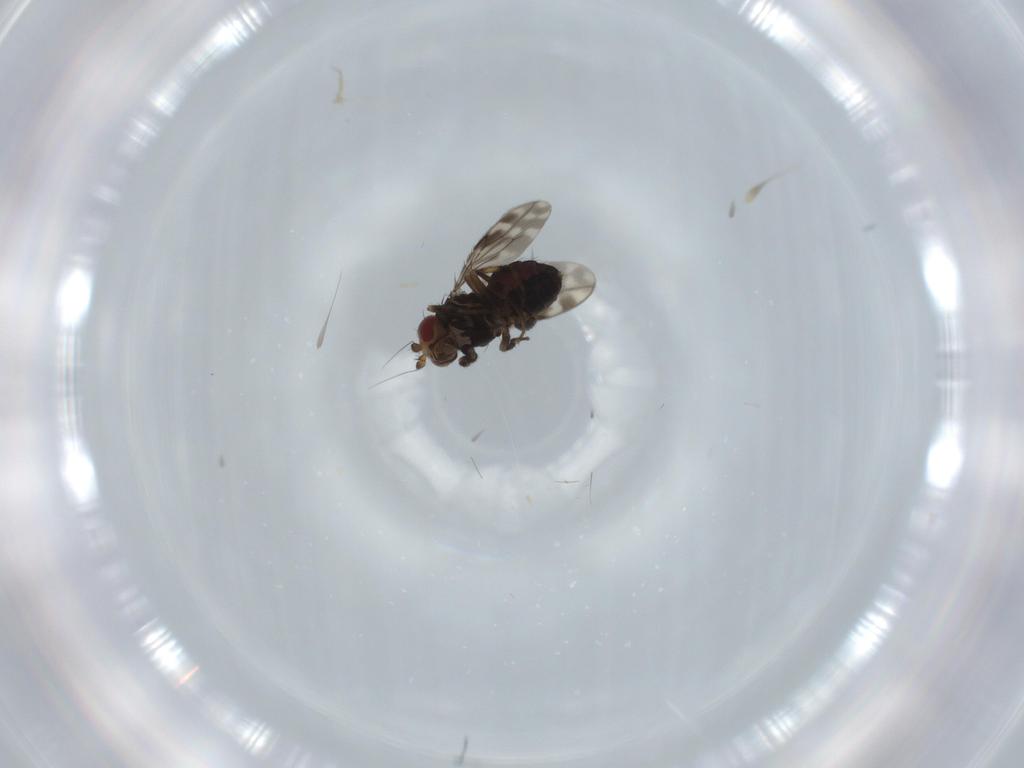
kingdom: Animalia
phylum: Arthropoda
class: Insecta
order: Diptera
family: Sphaeroceridae
